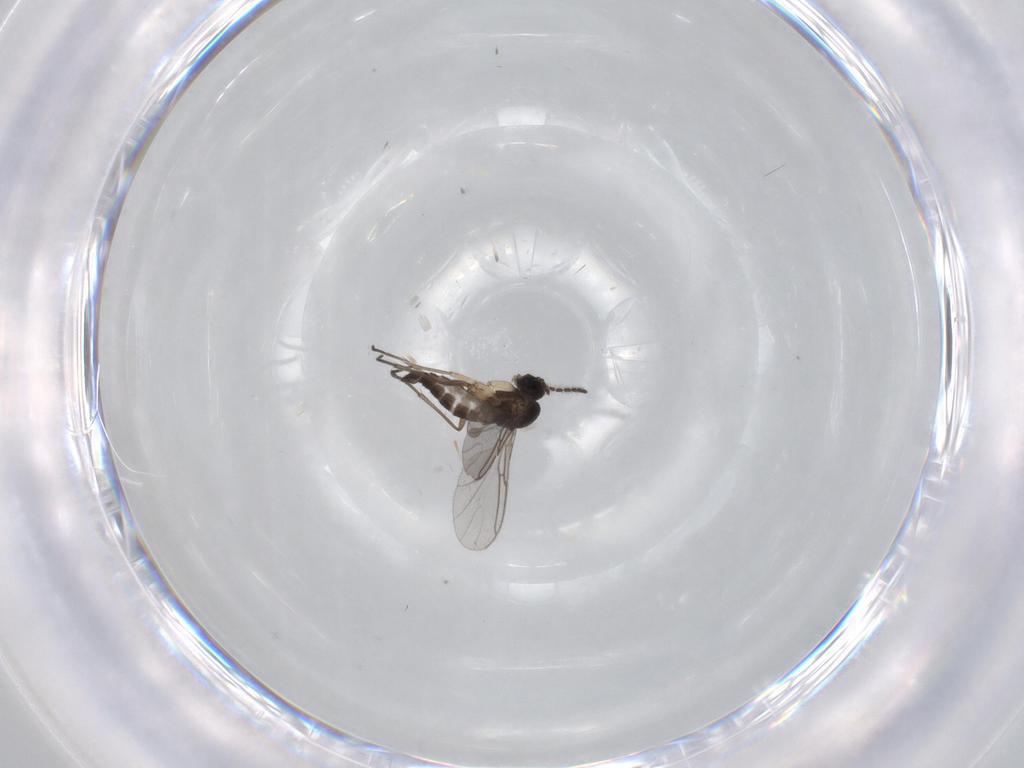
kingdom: Animalia
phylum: Arthropoda
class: Insecta
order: Diptera
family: Sciaridae
